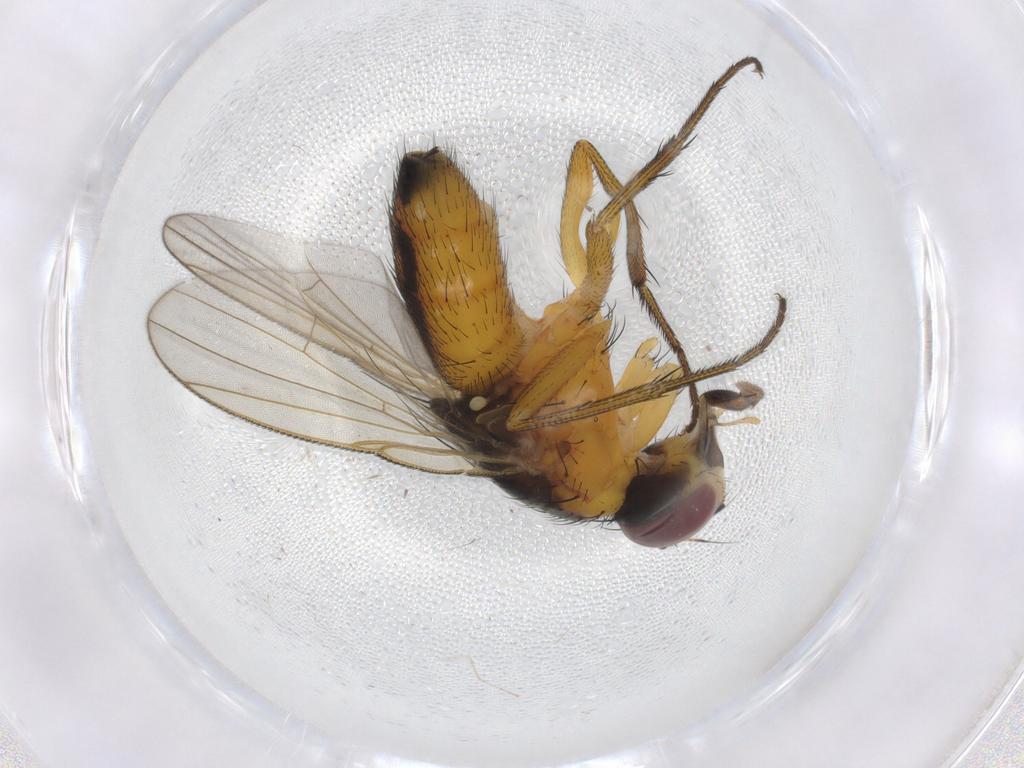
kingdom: Animalia
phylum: Arthropoda
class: Insecta
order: Diptera
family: Muscidae
